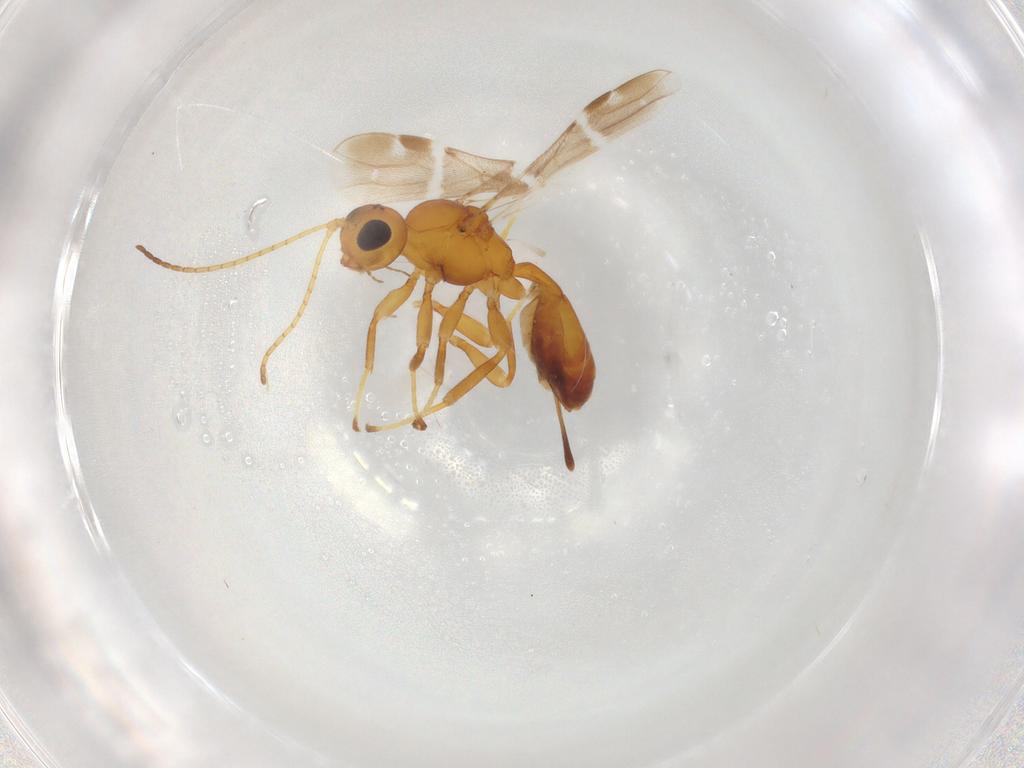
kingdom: Animalia
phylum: Arthropoda
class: Insecta
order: Hymenoptera
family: Braconidae
